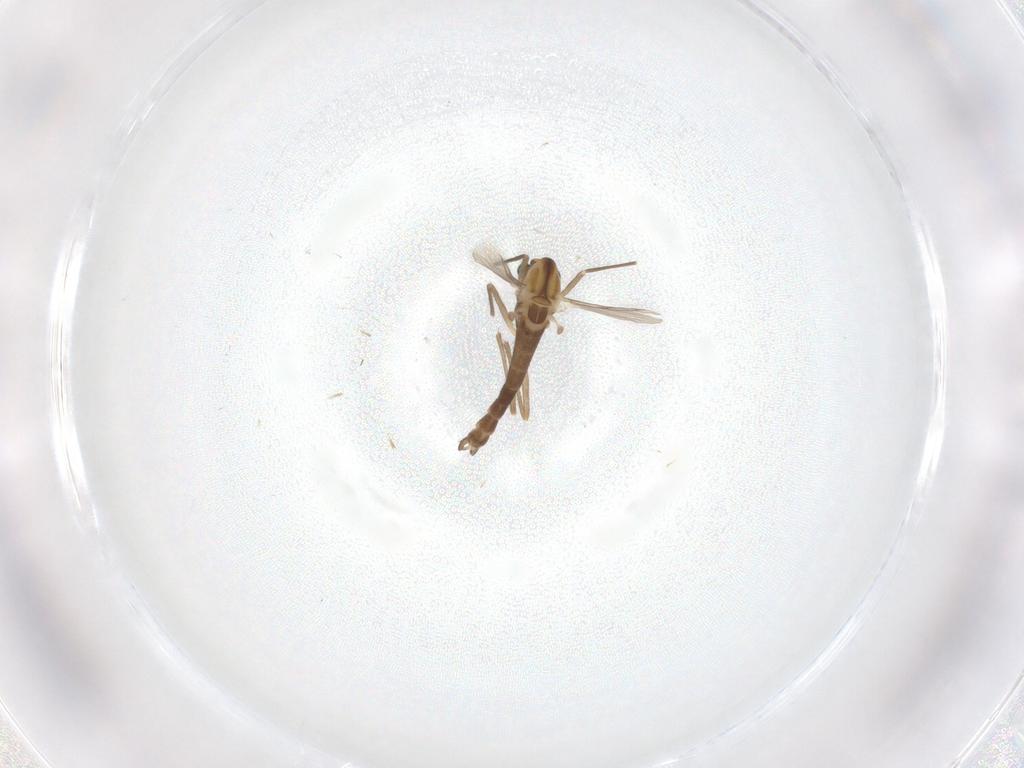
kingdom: Animalia
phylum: Arthropoda
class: Insecta
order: Diptera
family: Chironomidae
